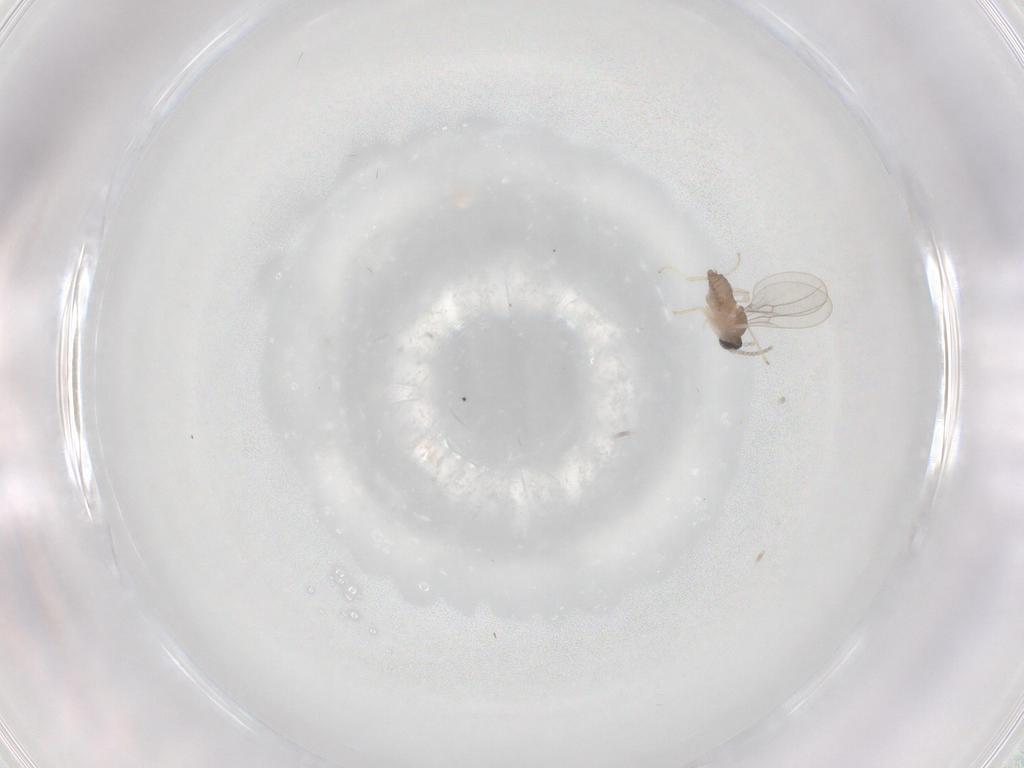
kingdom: Animalia
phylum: Arthropoda
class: Insecta
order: Diptera
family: Cecidomyiidae
